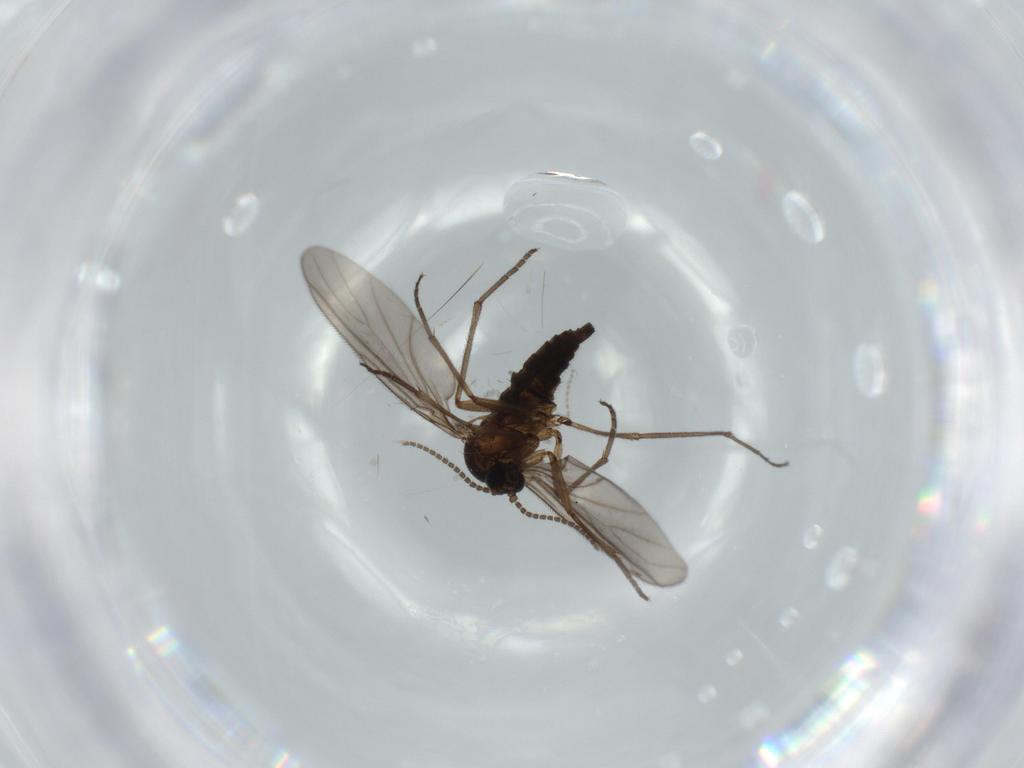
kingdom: Animalia
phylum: Arthropoda
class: Insecta
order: Diptera
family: Sciaridae
